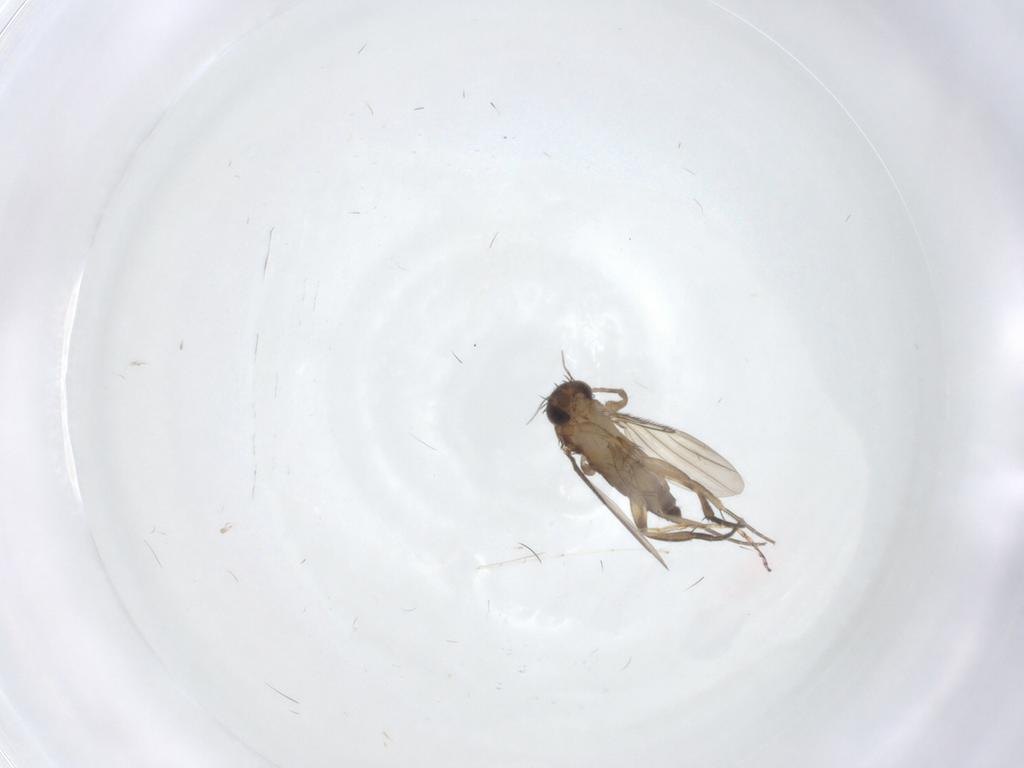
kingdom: Animalia
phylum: Arthropoda
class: Insecta
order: Diptera
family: Cecidomyiidae
